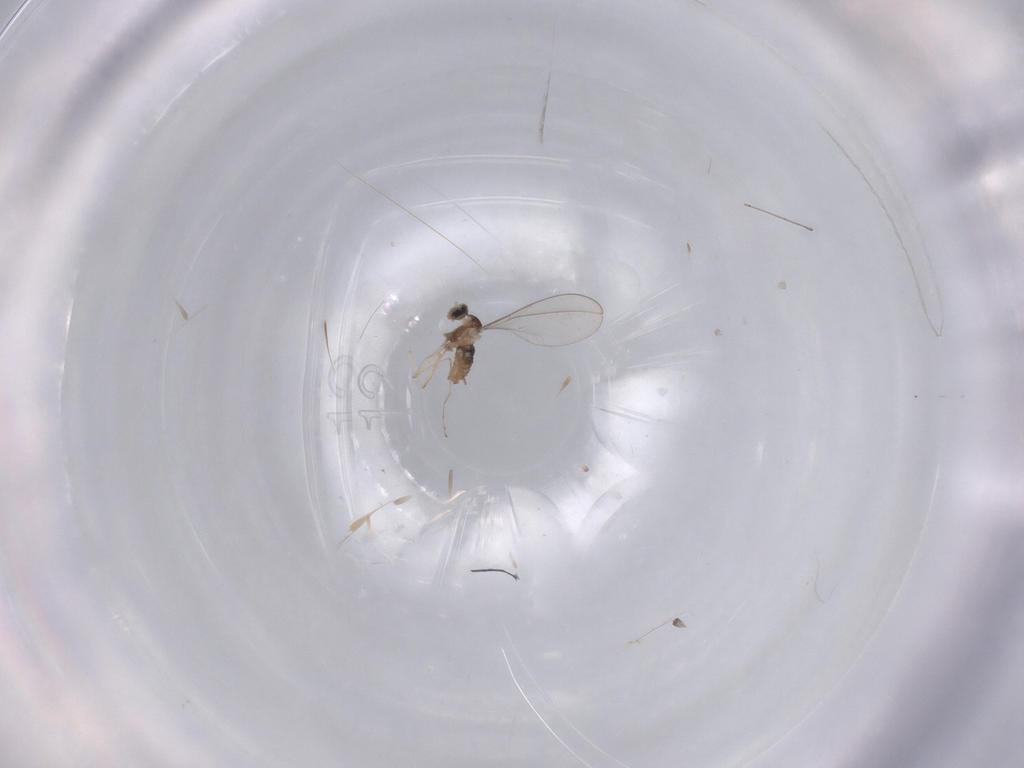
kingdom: Animalia
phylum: Arthropoda
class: Insecta
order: Diptera
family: Cecidomyiidae
